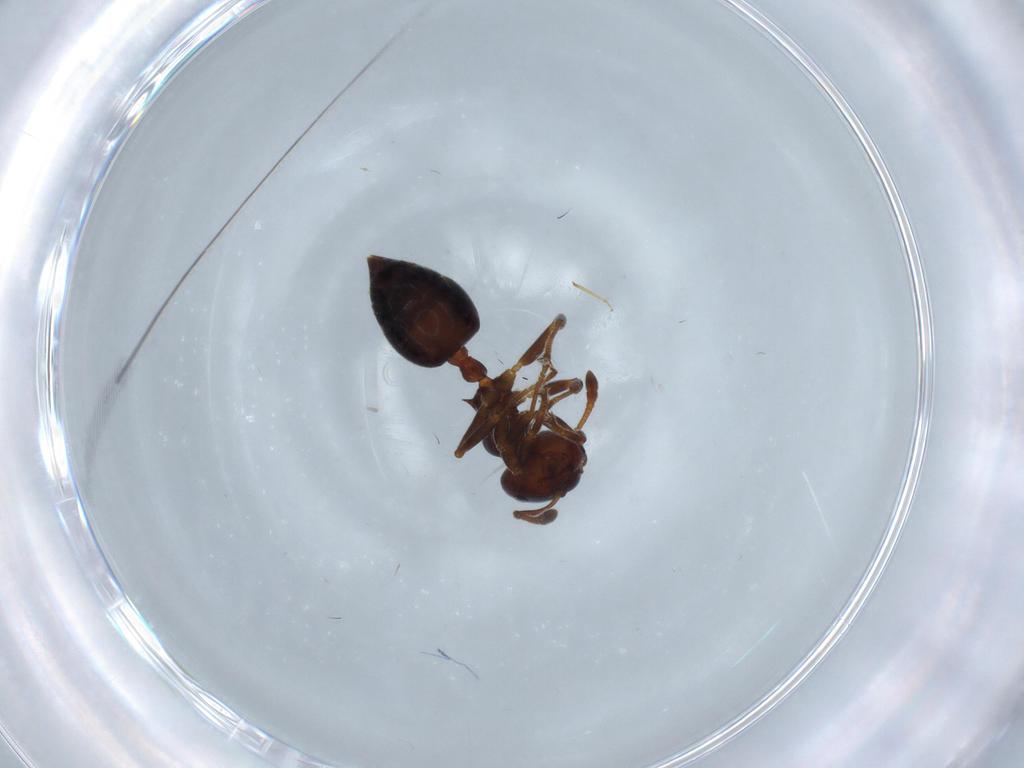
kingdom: Animalia
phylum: Arthropoda
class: Insecta
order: Hymenoptera
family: Formicidae
